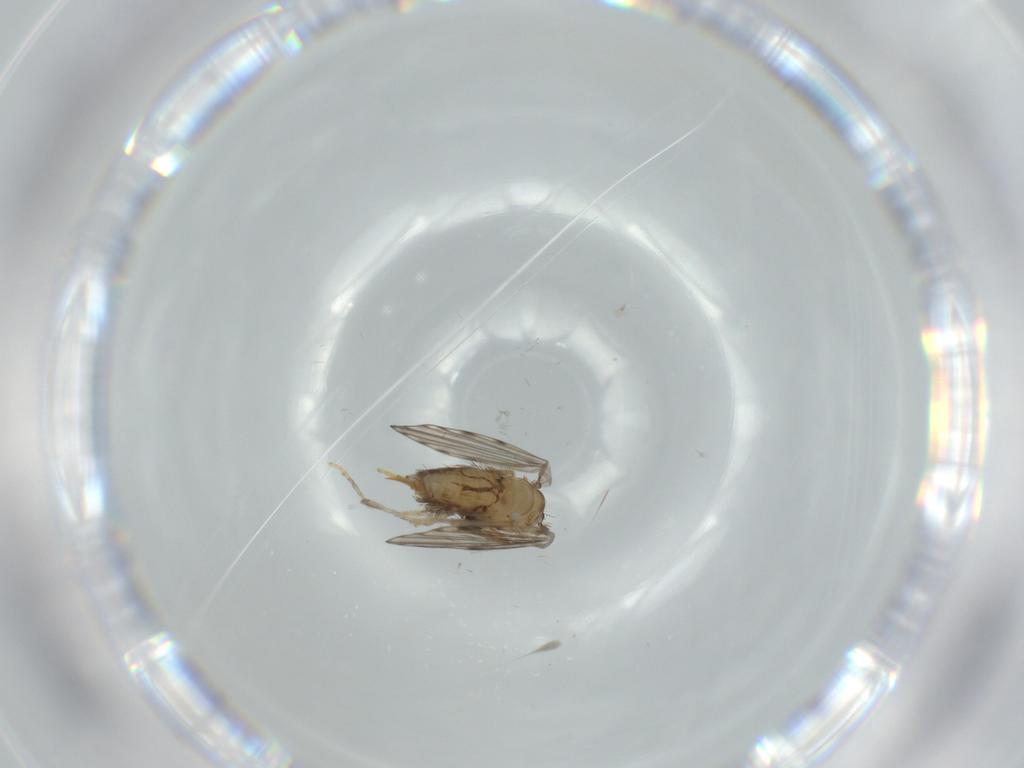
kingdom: Animalia
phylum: Arthropoda
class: Insecta
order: Diptera
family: Psychodidae
